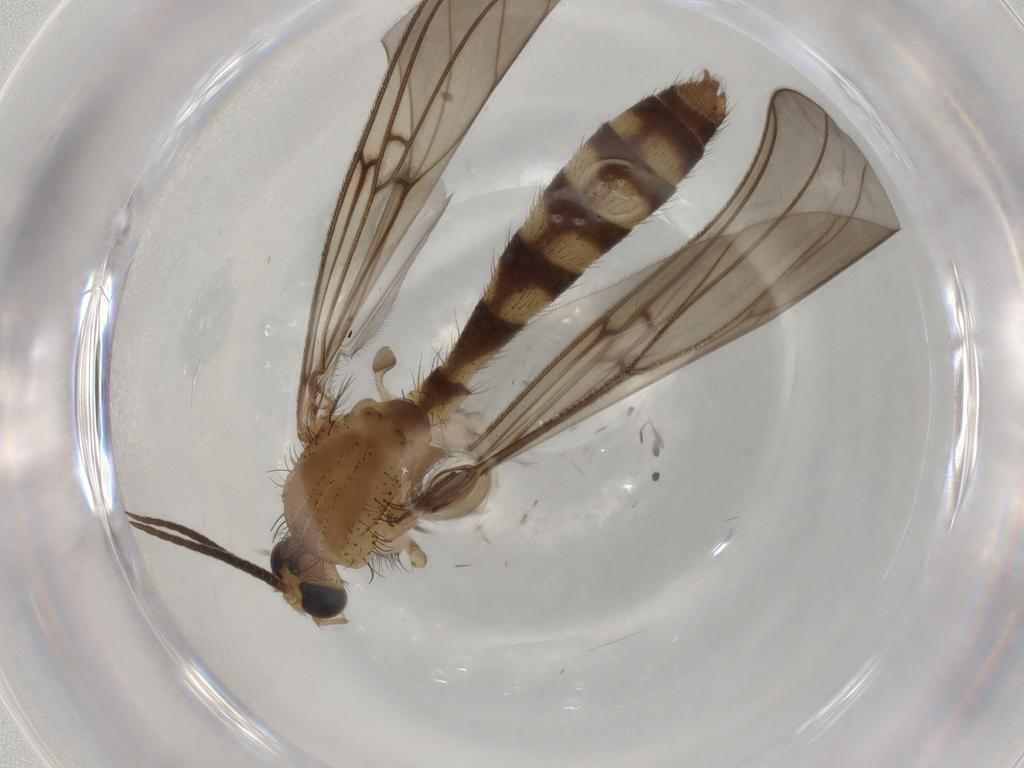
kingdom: Animalia
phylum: Arthropoda
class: Insecta
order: Diptera
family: Mycetophilidae
